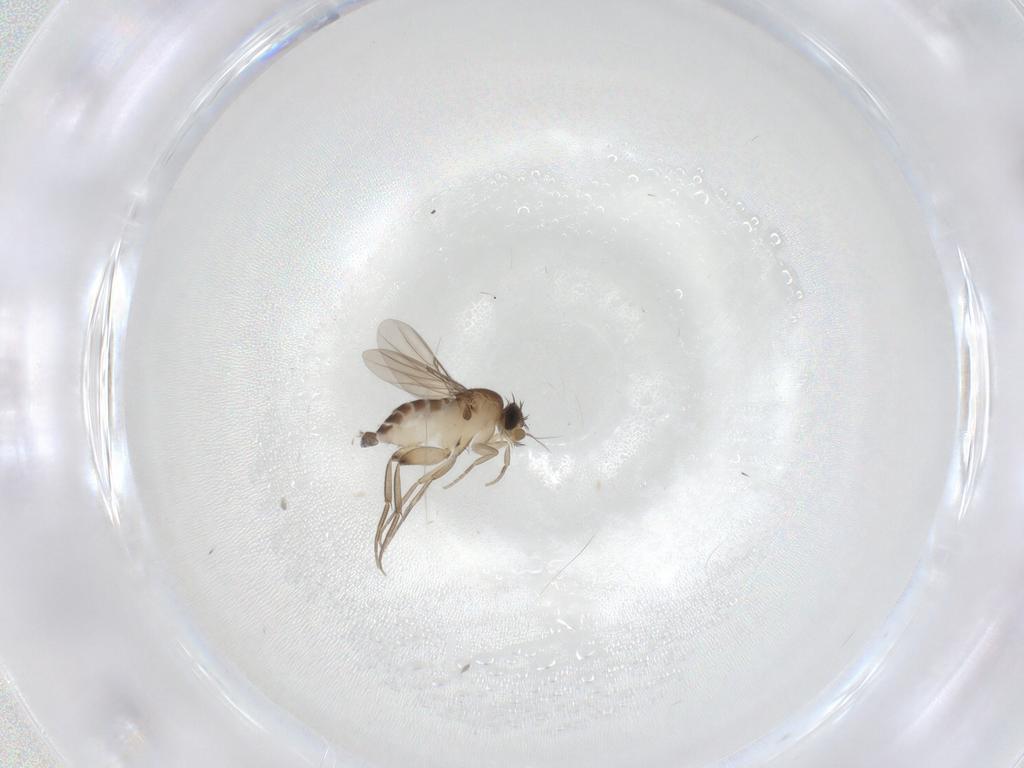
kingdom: Animalia
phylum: Arthropoda
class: Insecta
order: Diptera
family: Phoridae
